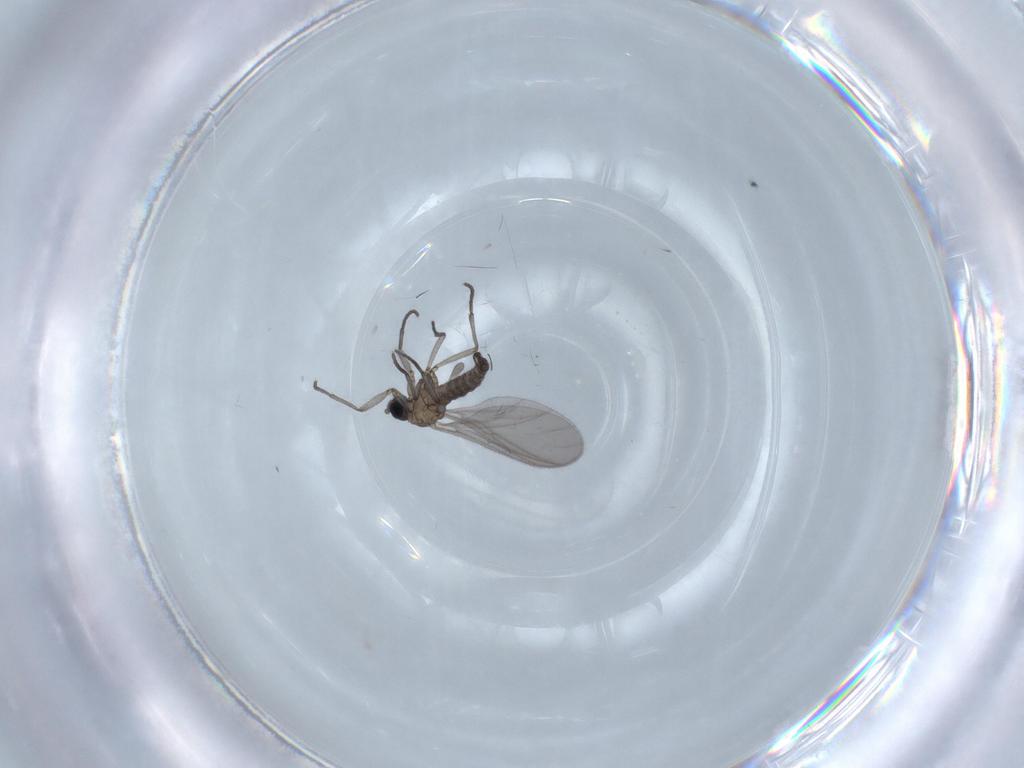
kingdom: Animalia
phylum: Arthropoda
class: Insecta
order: Diptera
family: Sciaridae
